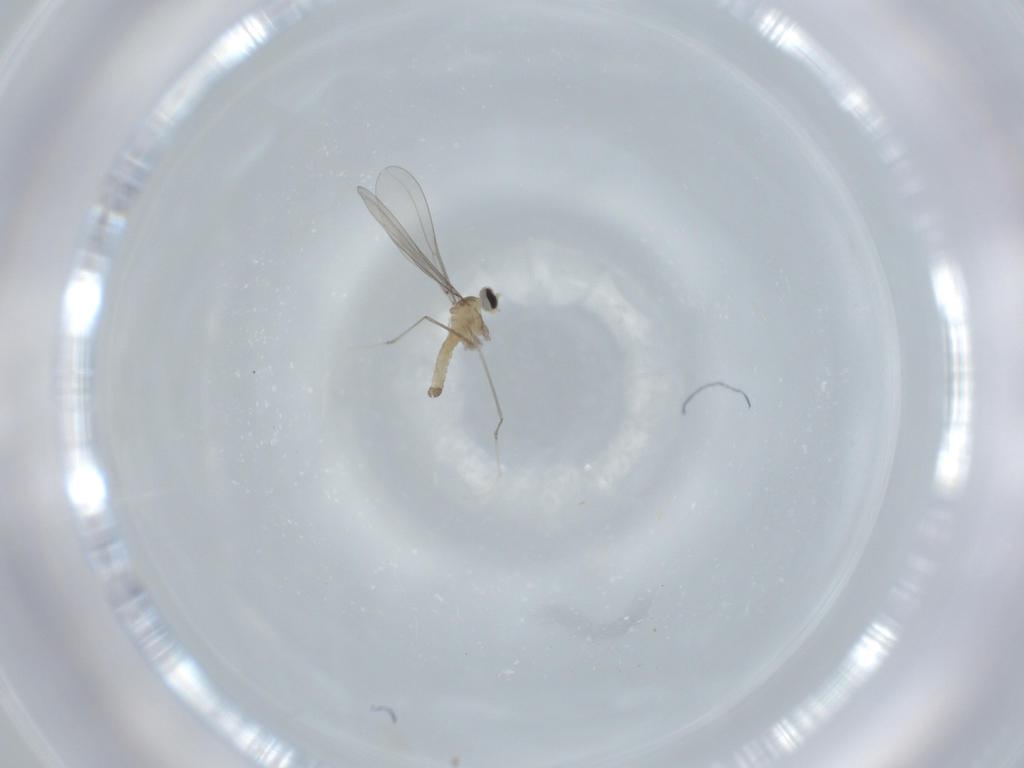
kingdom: Animalia
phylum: Arthropoda
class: Insecta
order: Diptera
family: Cecidomyiidae
